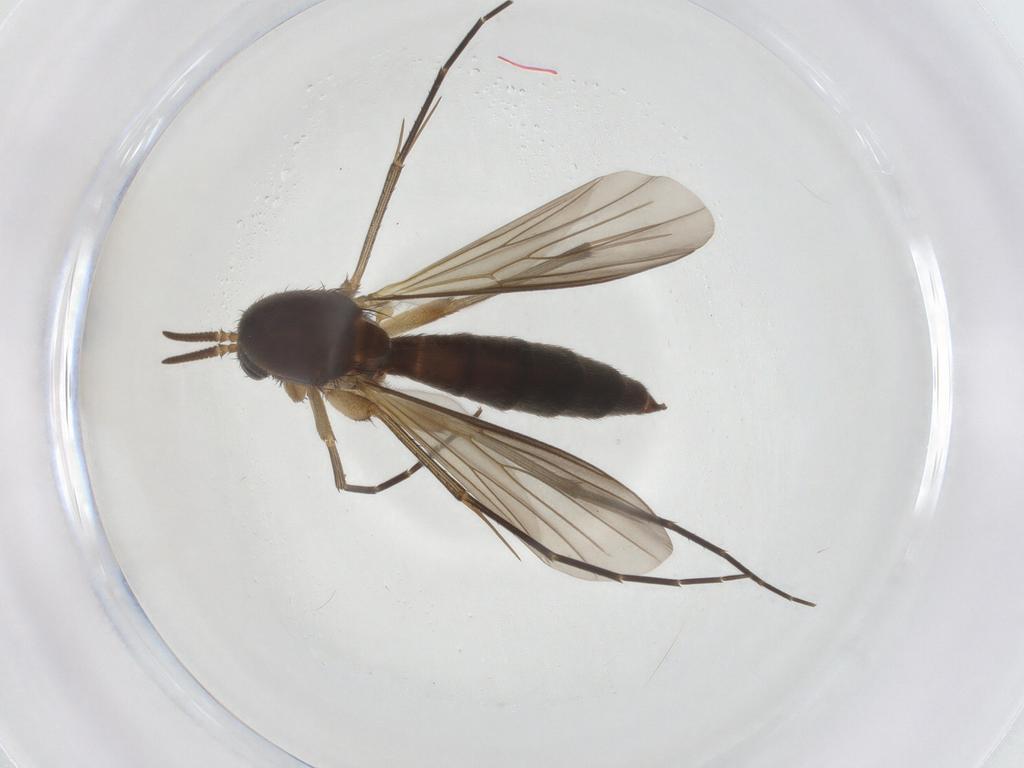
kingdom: Animalia
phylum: Arthropoda
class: Insecta
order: Diptera
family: Mycetophilidae
